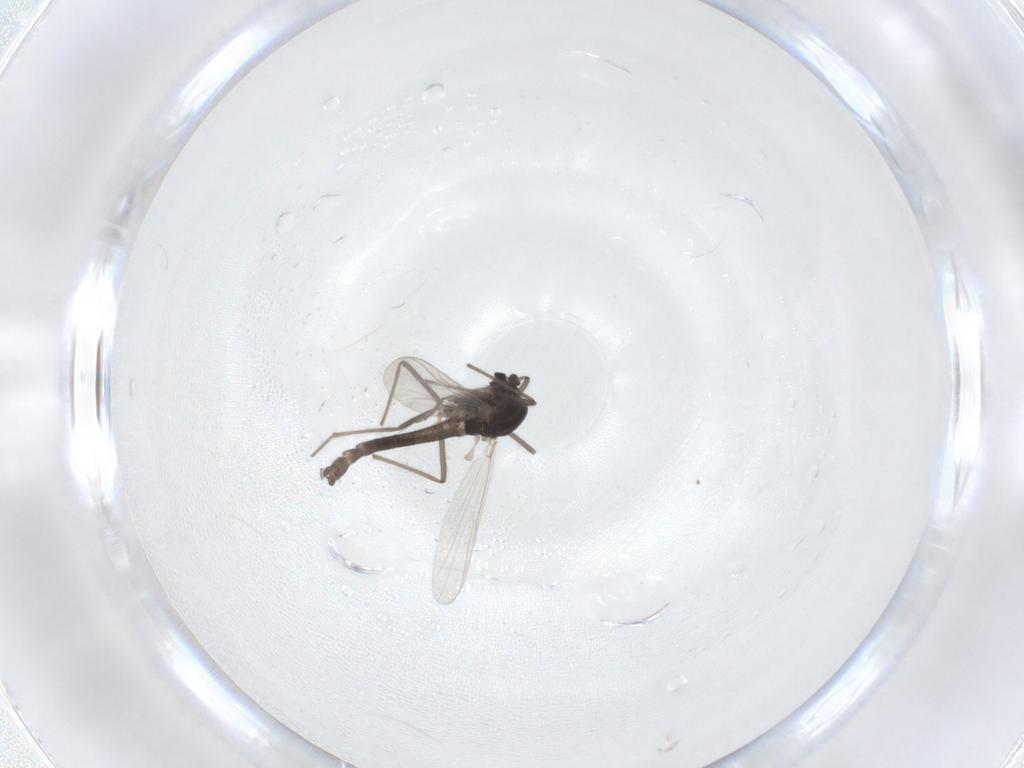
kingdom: Animalia
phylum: Arthropoda
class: Insecta
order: Diptera
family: Chironomidae
